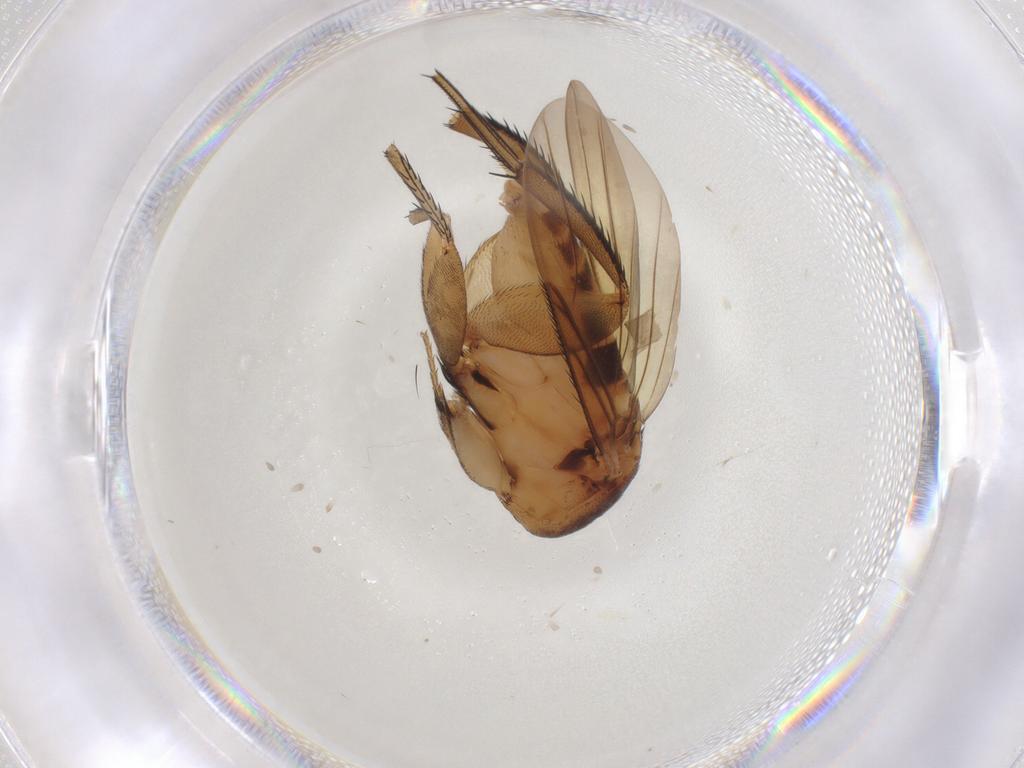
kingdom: Animalia
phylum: Arthropoda
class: Insecta
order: Diptera
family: Phoridae
